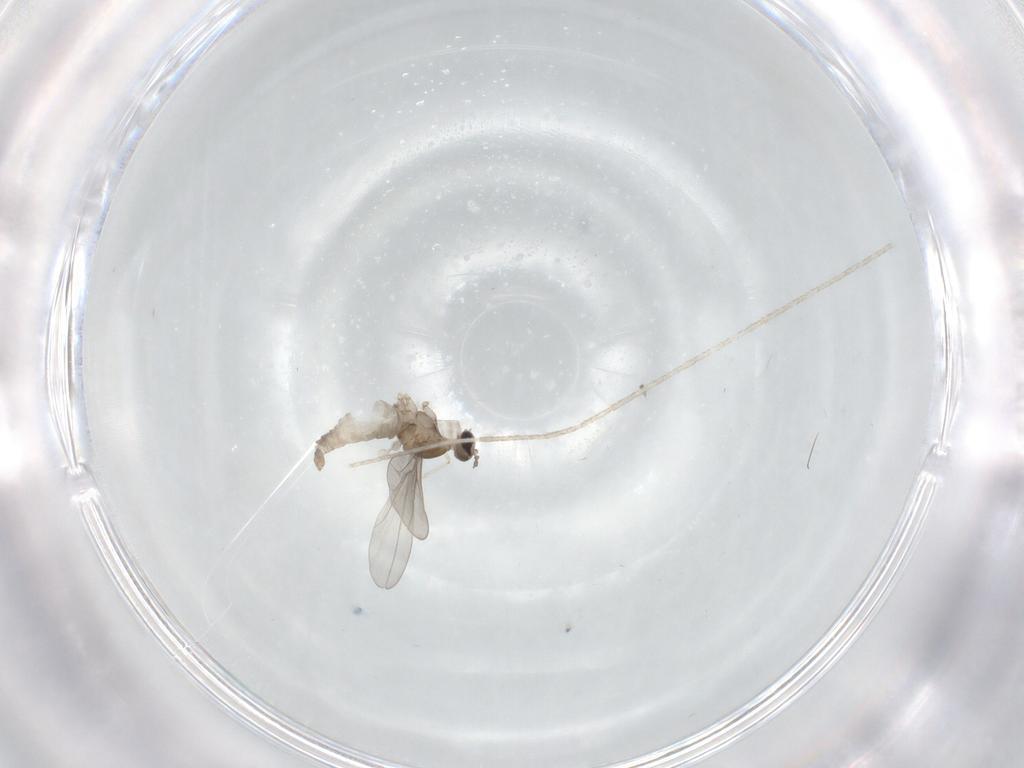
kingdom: Animalia
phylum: Arthropoda
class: Insecta
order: Diptera
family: Cecidomyiidae
